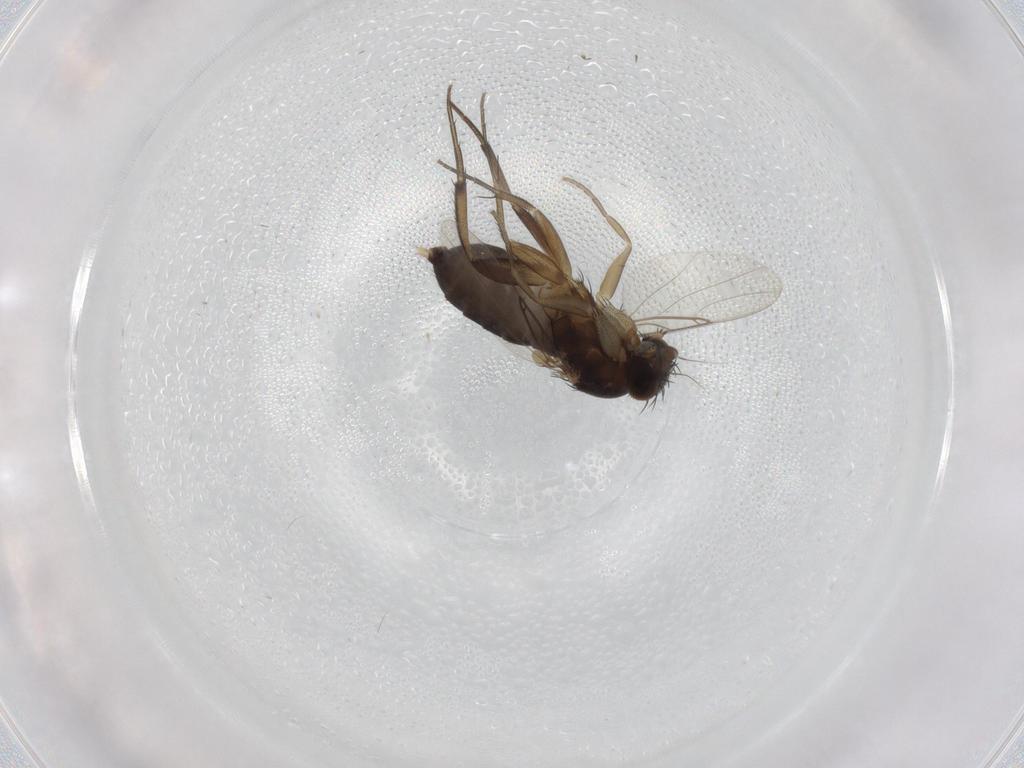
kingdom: Animalia
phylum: Arthropoda
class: Insecta
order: Diptera
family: Phoridae
